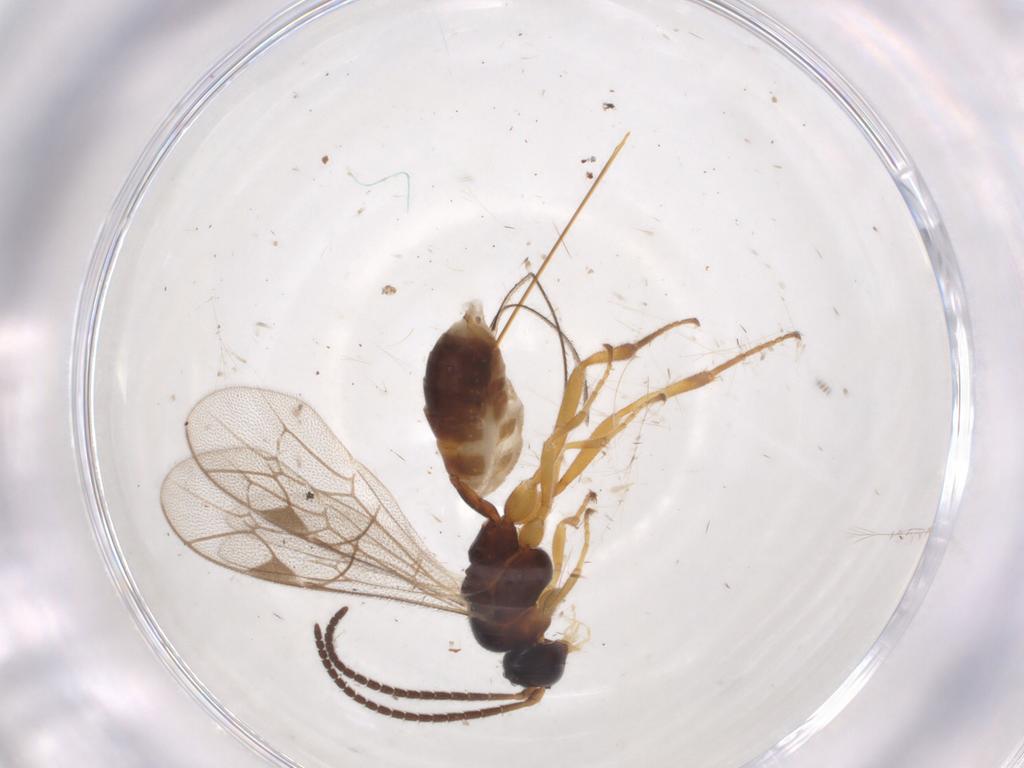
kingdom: Animalia
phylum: Arthropoda
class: Insecta
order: Hymenoptera
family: Ichneumonidae
